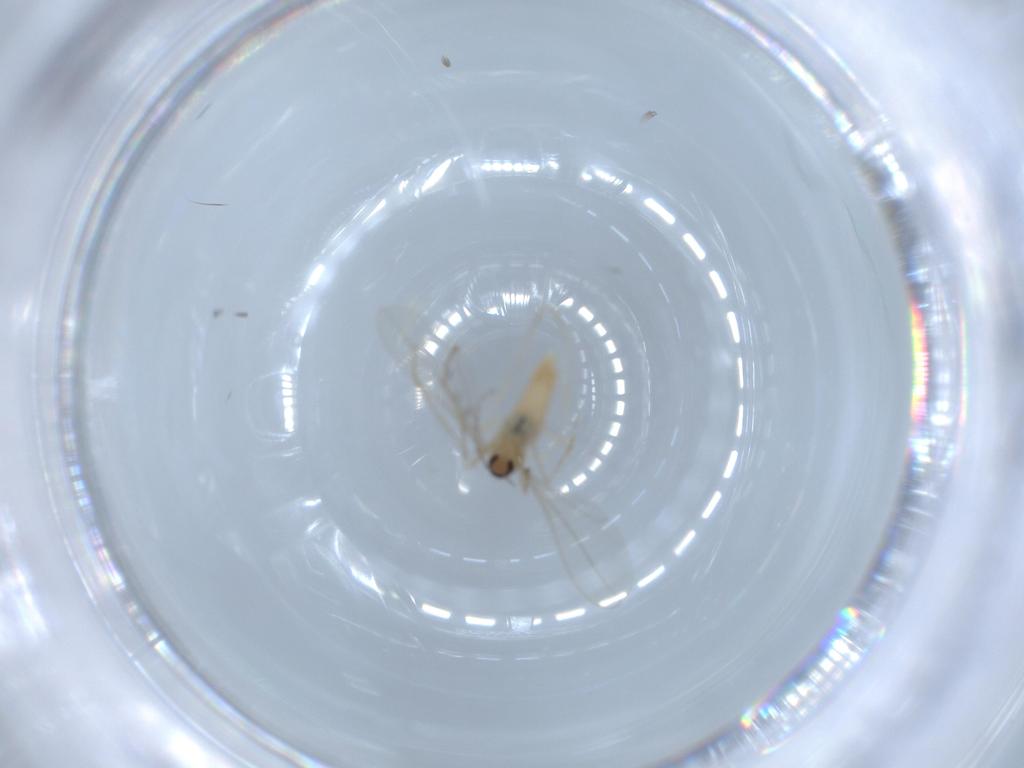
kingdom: Animalia
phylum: Arthropoda
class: Insecta
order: Diptera
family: Cecidomyiidae
